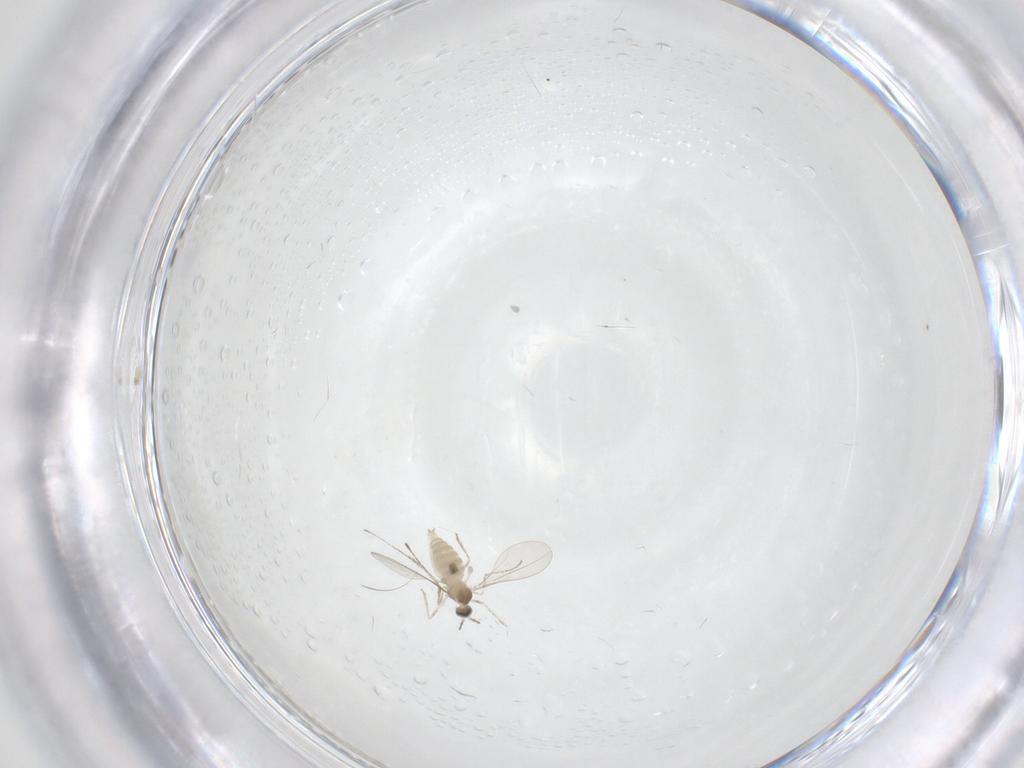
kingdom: Animalia
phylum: Arthropoda
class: Insecta
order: Diptera
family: Cecidomyiidae
